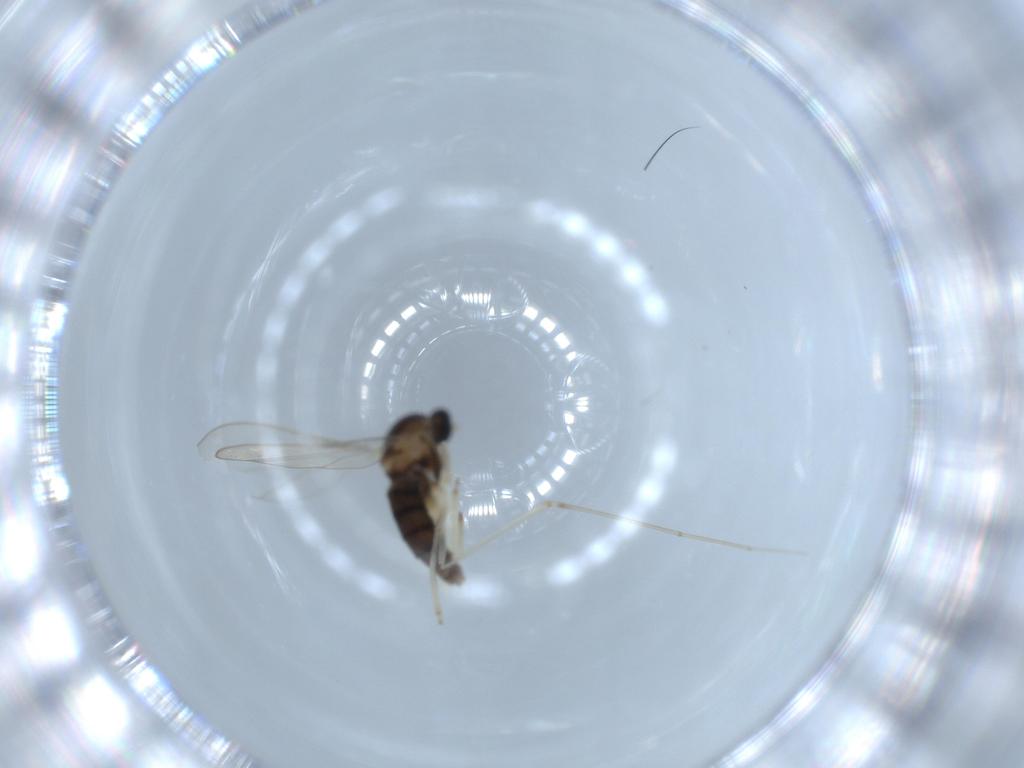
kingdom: Animalia
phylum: Arthropoda
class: Insecta
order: Diptera
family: Cecidomyiidae
